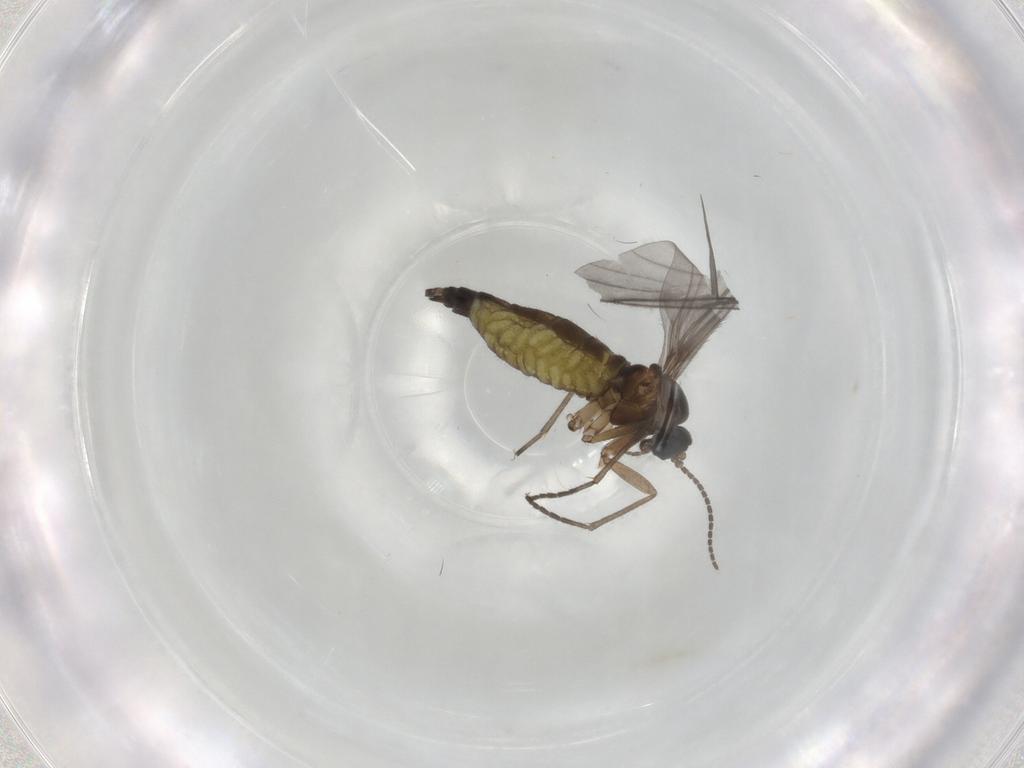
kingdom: Animalia
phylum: Arthropoda
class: Insecta
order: Diptera
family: Sciaridae
